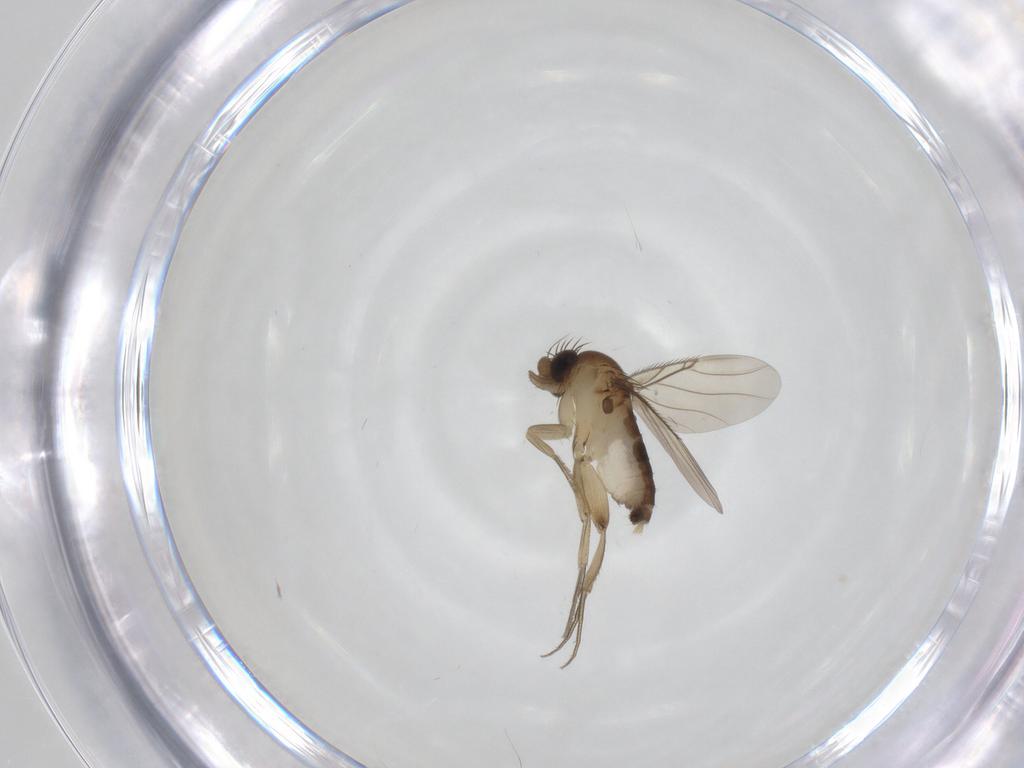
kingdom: Animalia
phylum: Arthropoda
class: Insecta
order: Diptera
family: Phoridae
